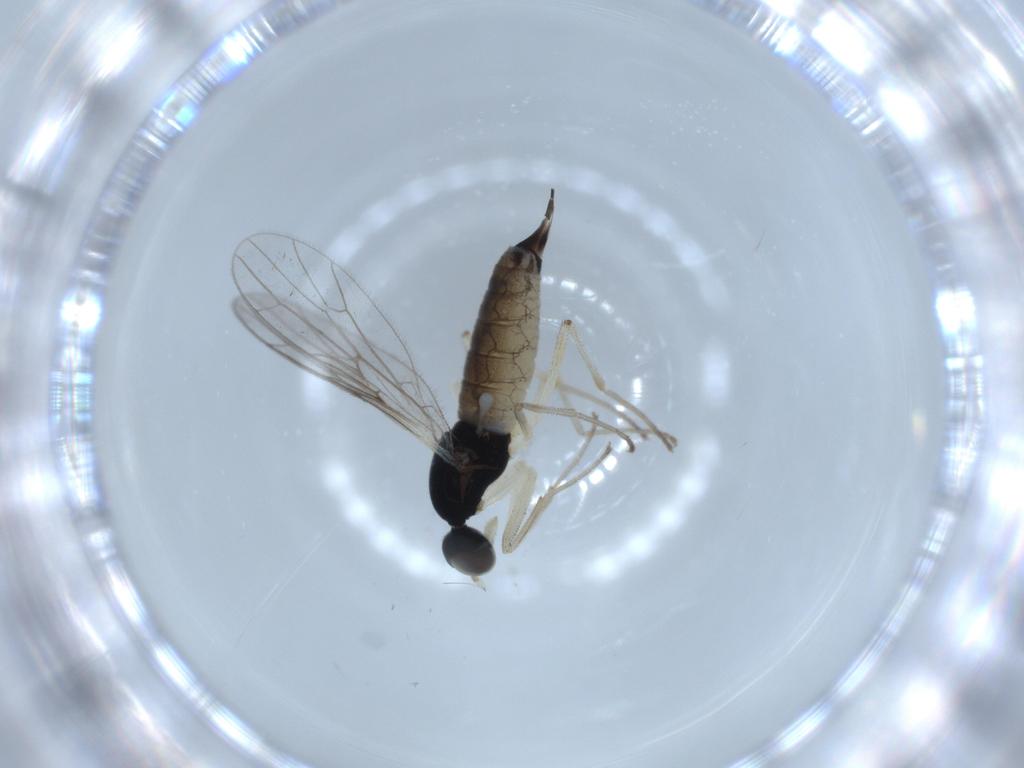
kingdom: Animalia
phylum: Arthropoda
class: Insecta
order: Diptera
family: Empididae
